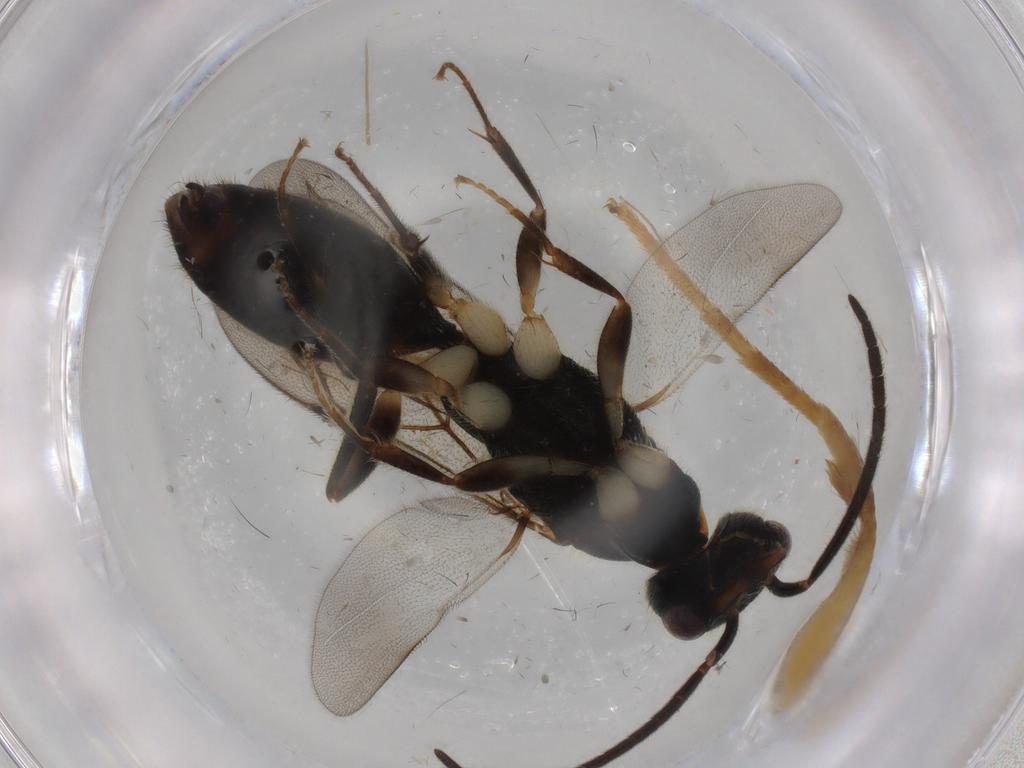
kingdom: Animalia
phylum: Arthropoda
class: Insecta
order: Hymenoptera
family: Bethylidae
